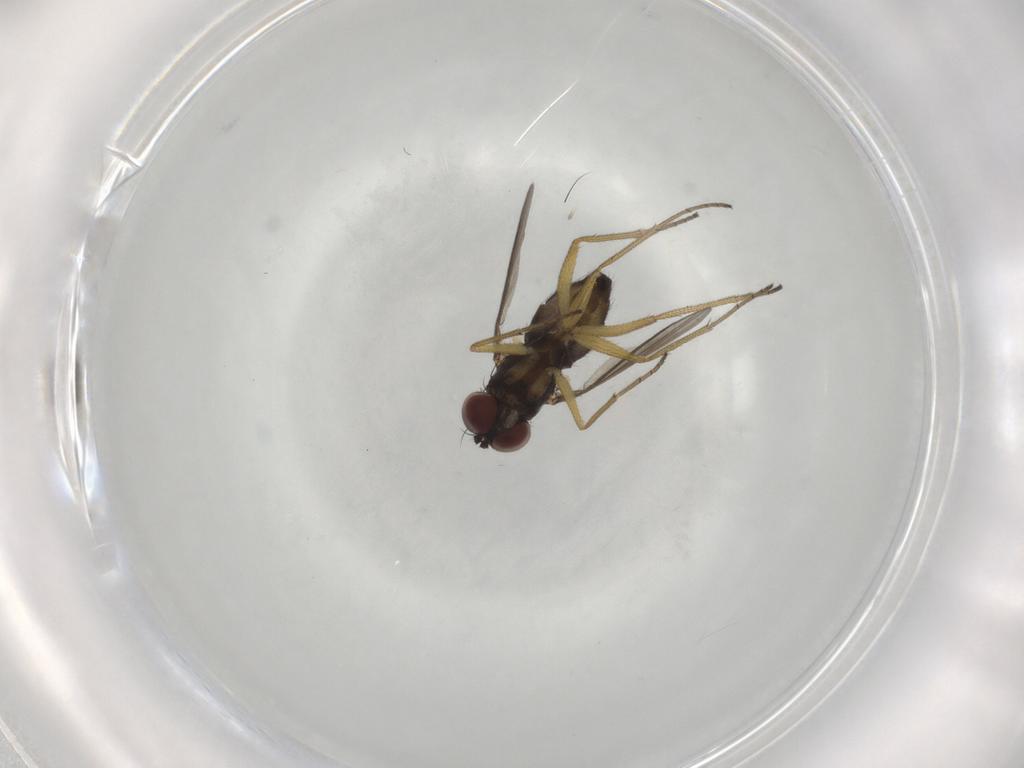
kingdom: Animalia
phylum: Arthropoda
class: Insecta
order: Diptera
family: Dolichopodidae
